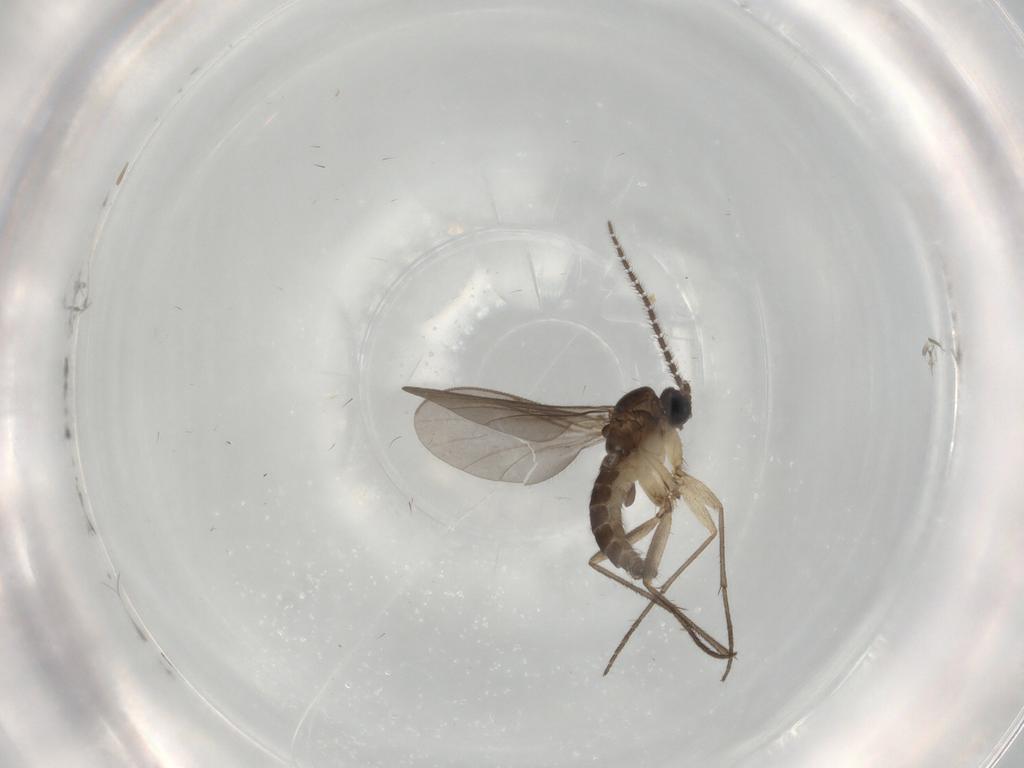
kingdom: Animalia
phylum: Arthropoda
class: Insecta
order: Diptera
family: Sciaridae
